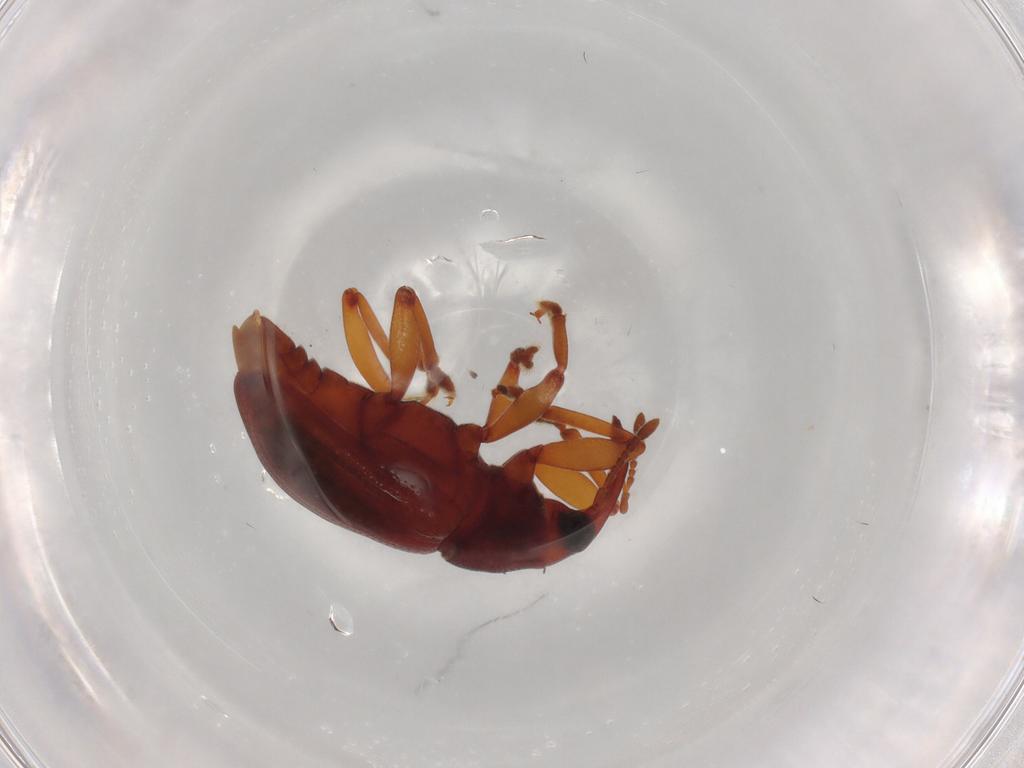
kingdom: Animalia
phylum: Arthropoda
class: Insecta
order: Coleoptera
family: Curculionidae
